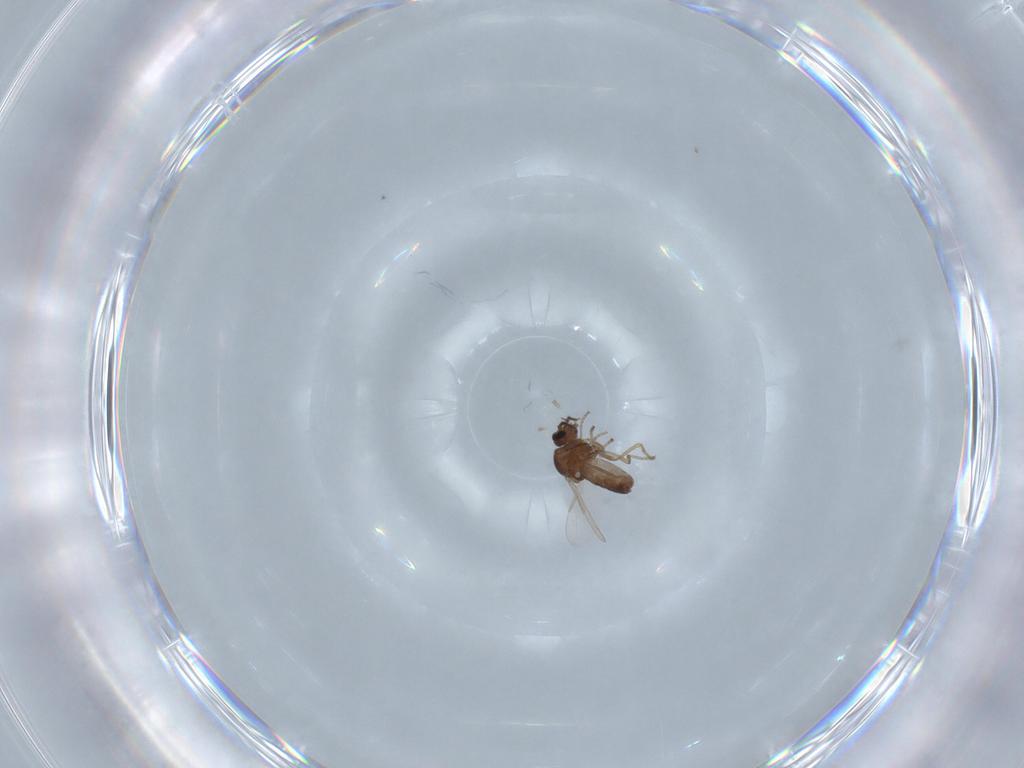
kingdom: Animalia
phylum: Arthropoda
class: Insecta
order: Diptera
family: Ceratopogonidae
